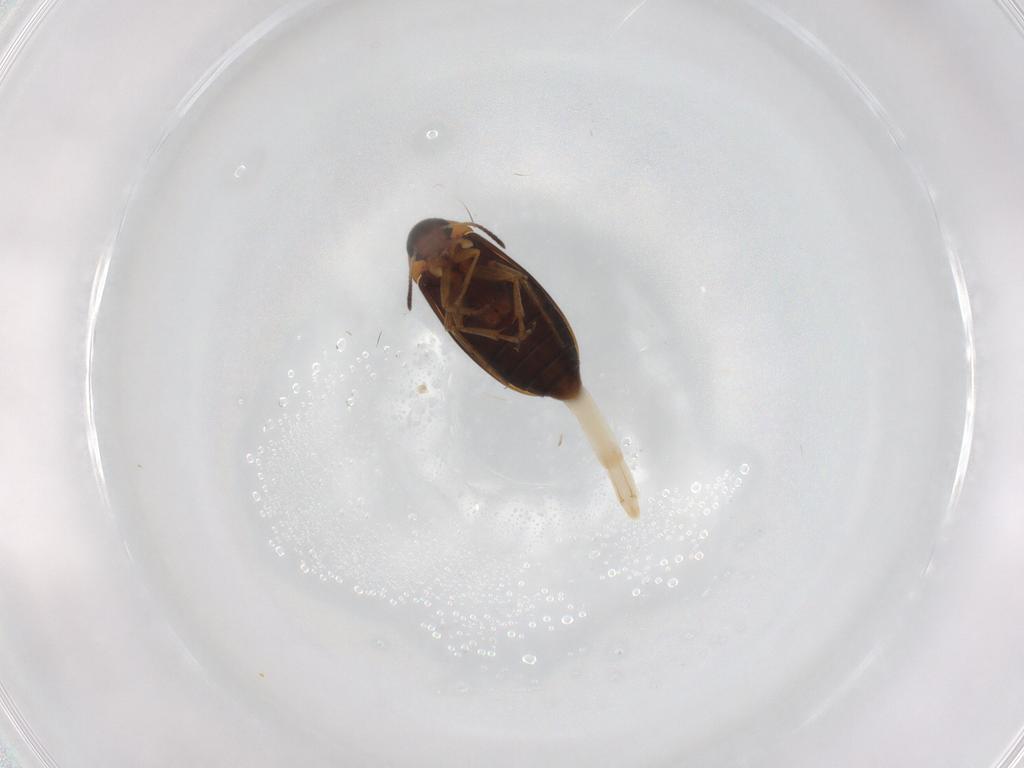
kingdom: Animalia
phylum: Arthropoda
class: Insecta
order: Coleoptera
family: Scraptiidae
